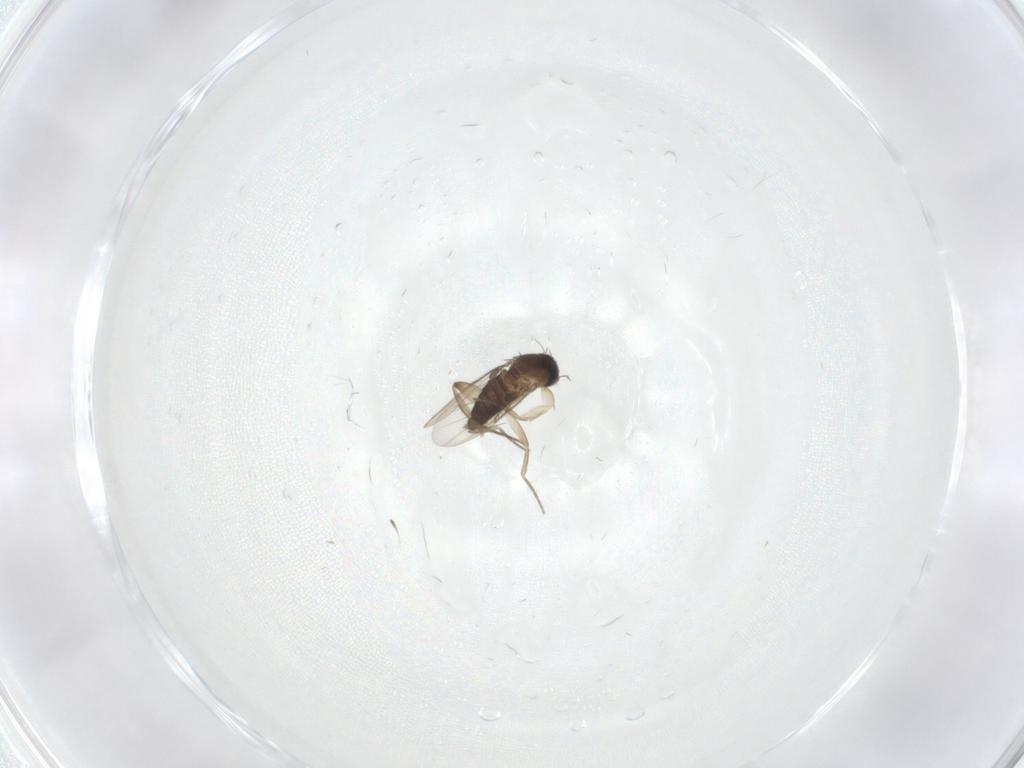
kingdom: Animalia
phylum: Arthropoda
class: Insecta
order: Diptera
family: Phoridae
